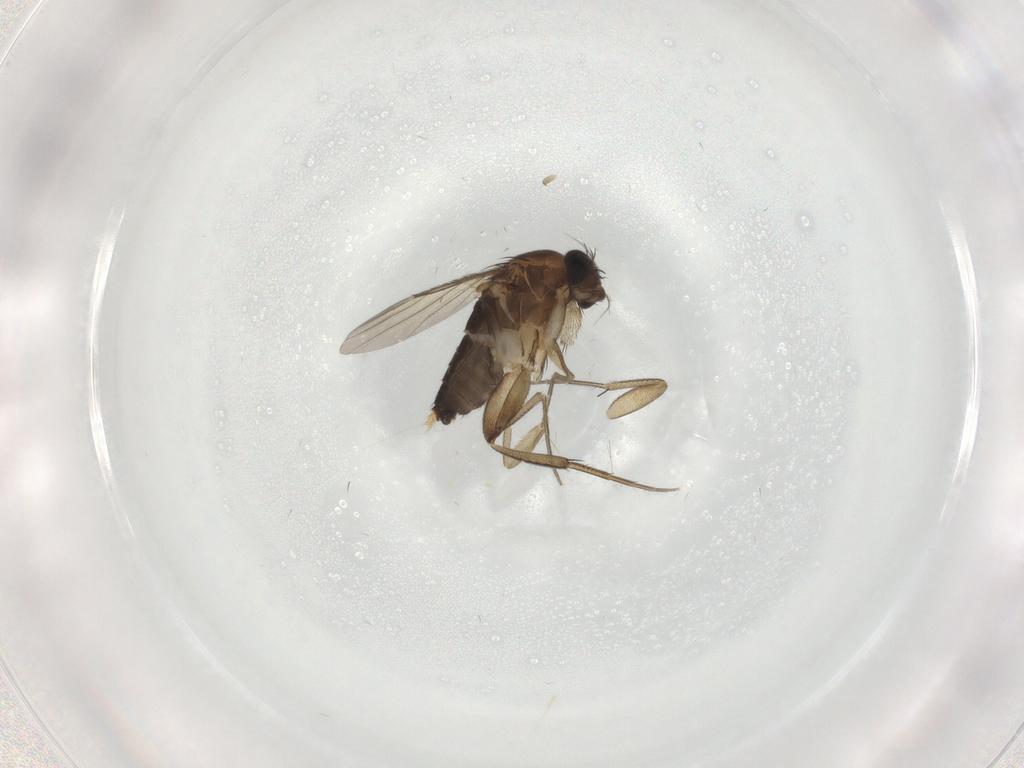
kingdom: Animalia
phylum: Arthropoda
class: Insecta
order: Diptera
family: Phoridae
